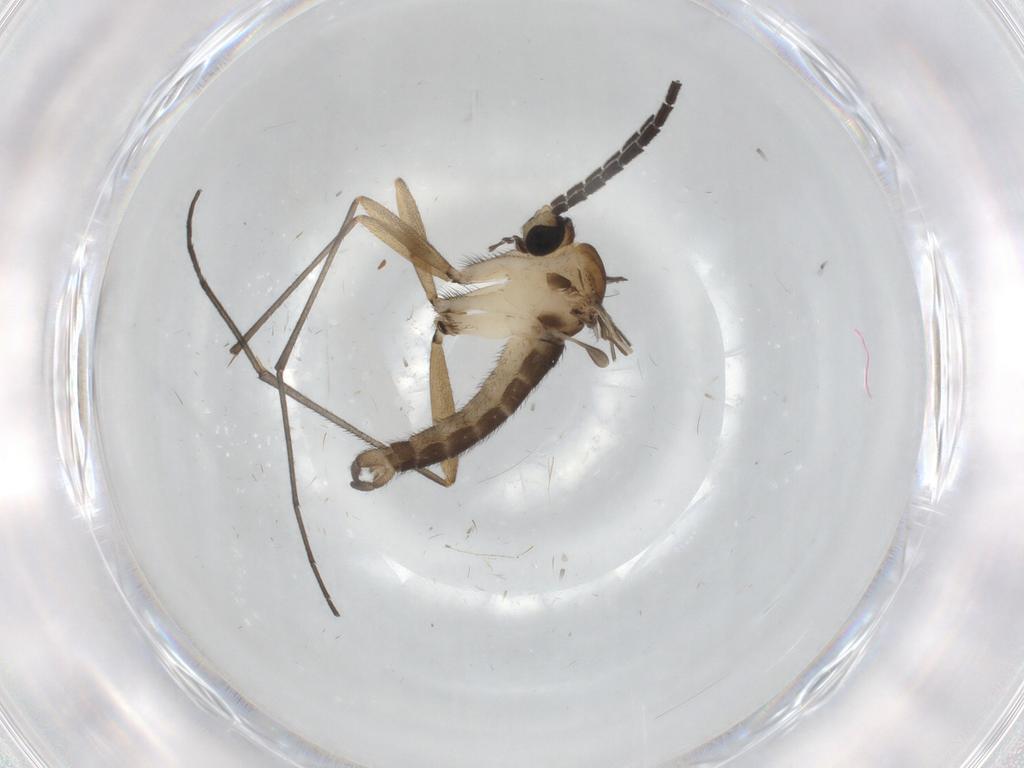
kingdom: Animalia
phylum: Arthropoda
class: Insecta
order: Diptera
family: Sciaridae
